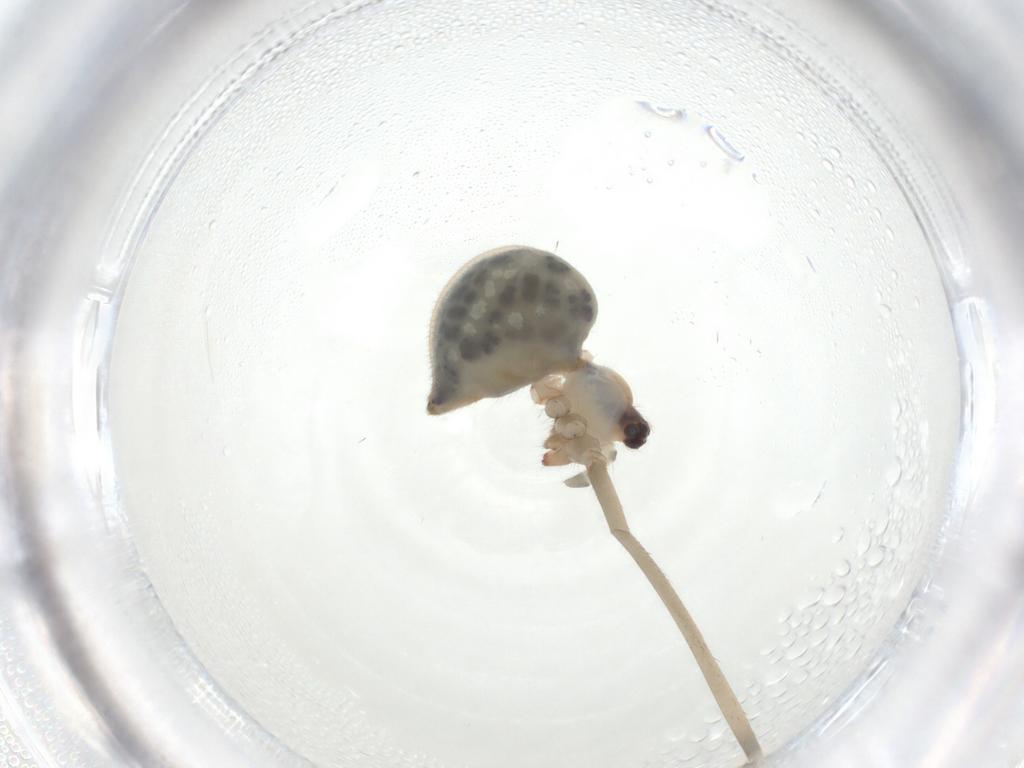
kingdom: Animalia
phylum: Arthropoda
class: Arachnida
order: Araneae
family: Pholcidae
